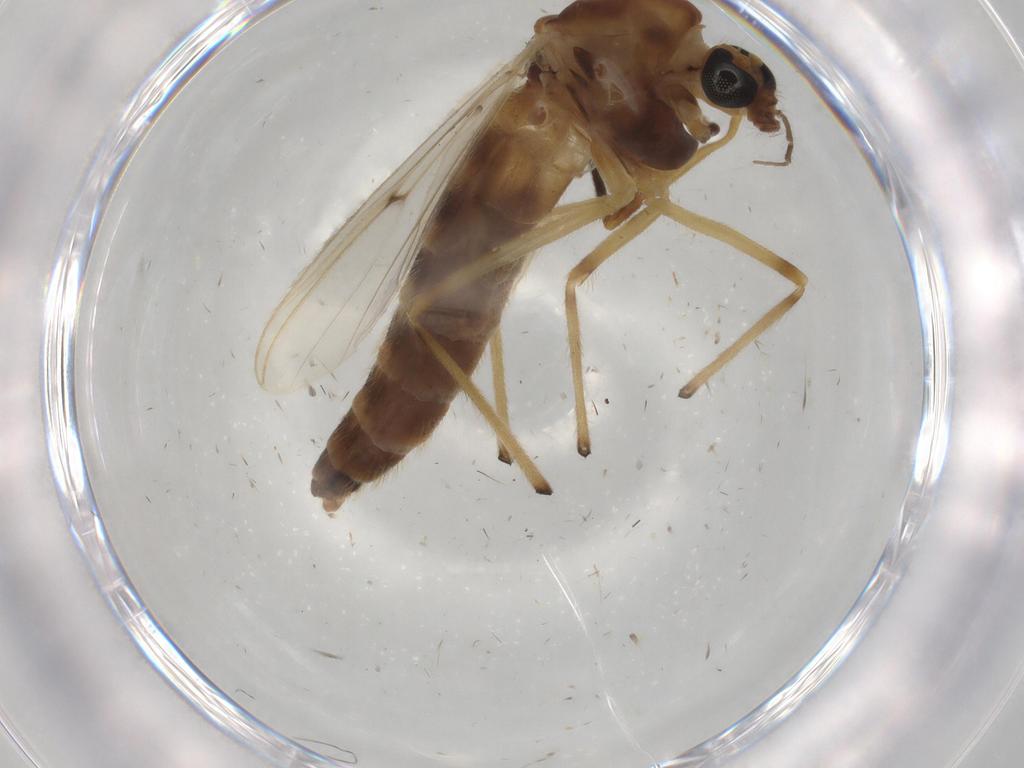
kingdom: Animalia
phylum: Arthropoda
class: Insecta
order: Diptera
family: Chironomidae
